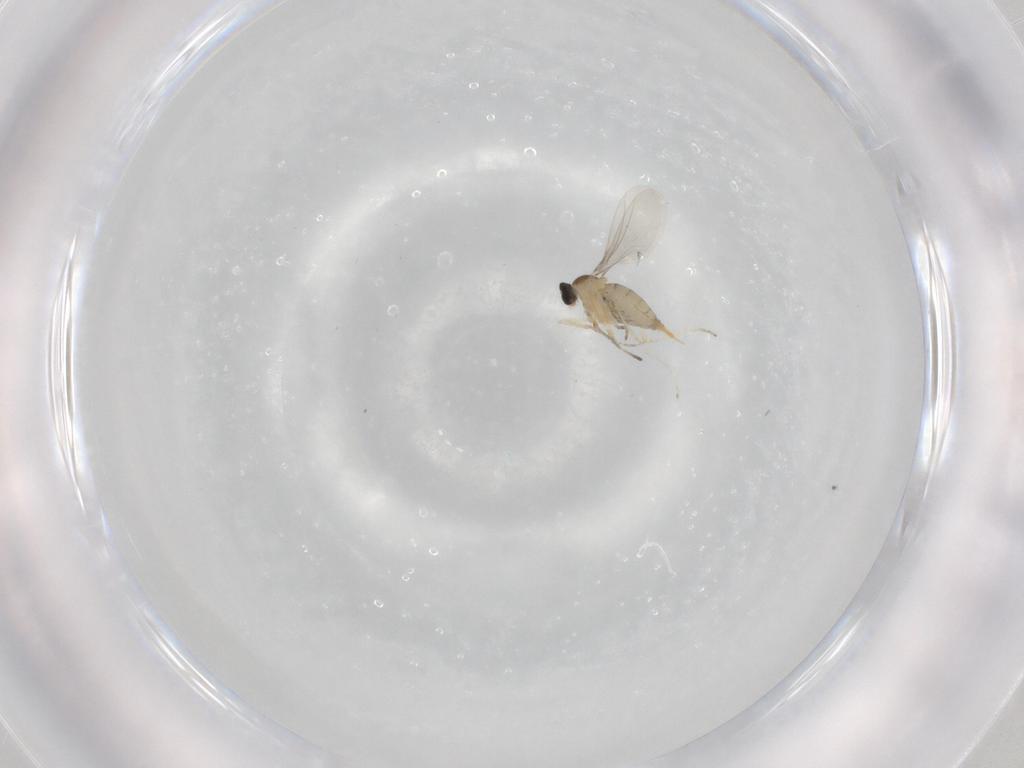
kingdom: Animalia
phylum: Arthropoda
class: Insecta
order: Diptera
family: Cecidomyiidae
